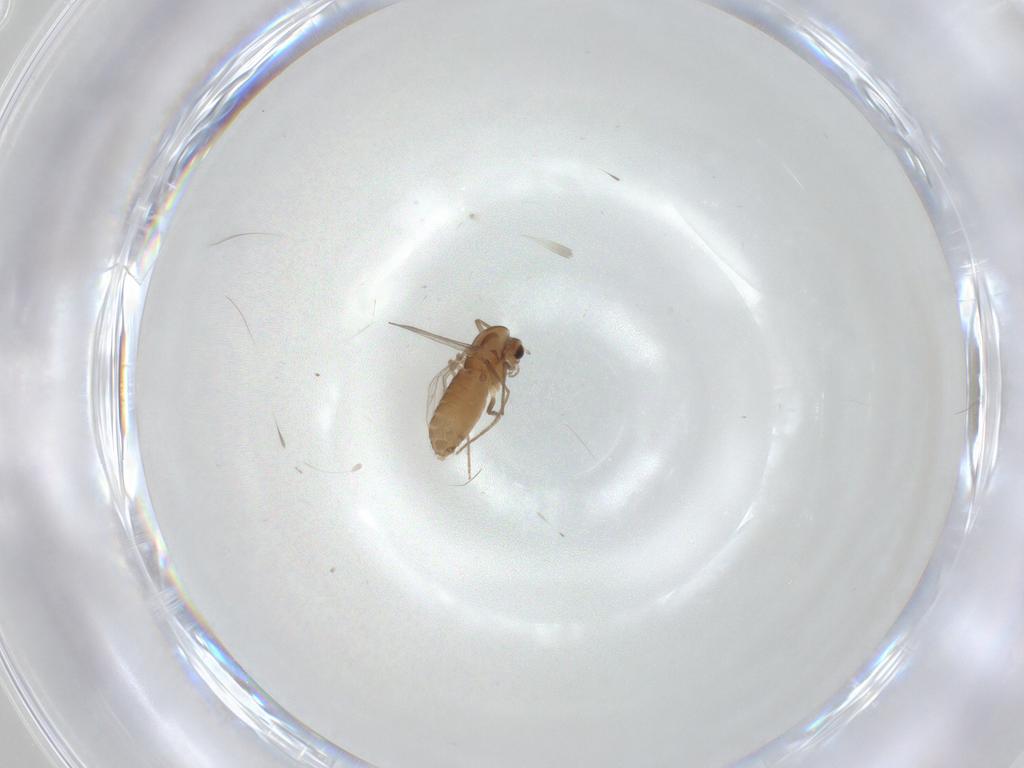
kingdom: Animalia
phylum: Arthropoda
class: Insecta
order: Diptera
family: Chironomidae
